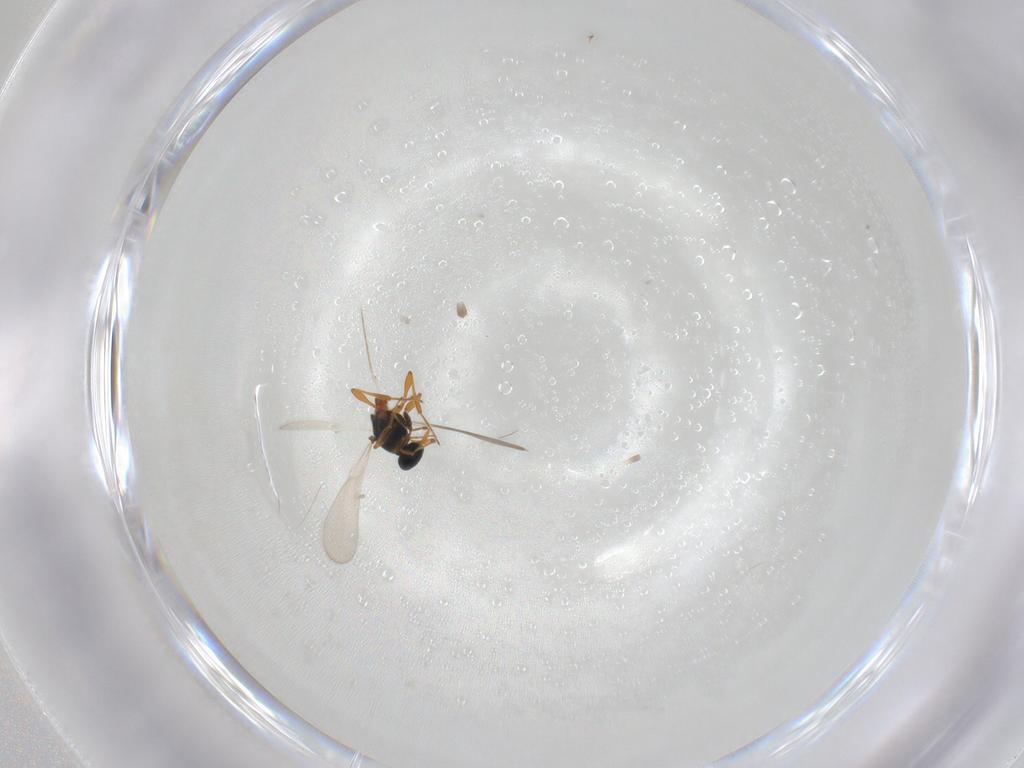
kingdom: Animalia
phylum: Arthropoda
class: Insecta
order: Hymenoptera
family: Platygastridae
